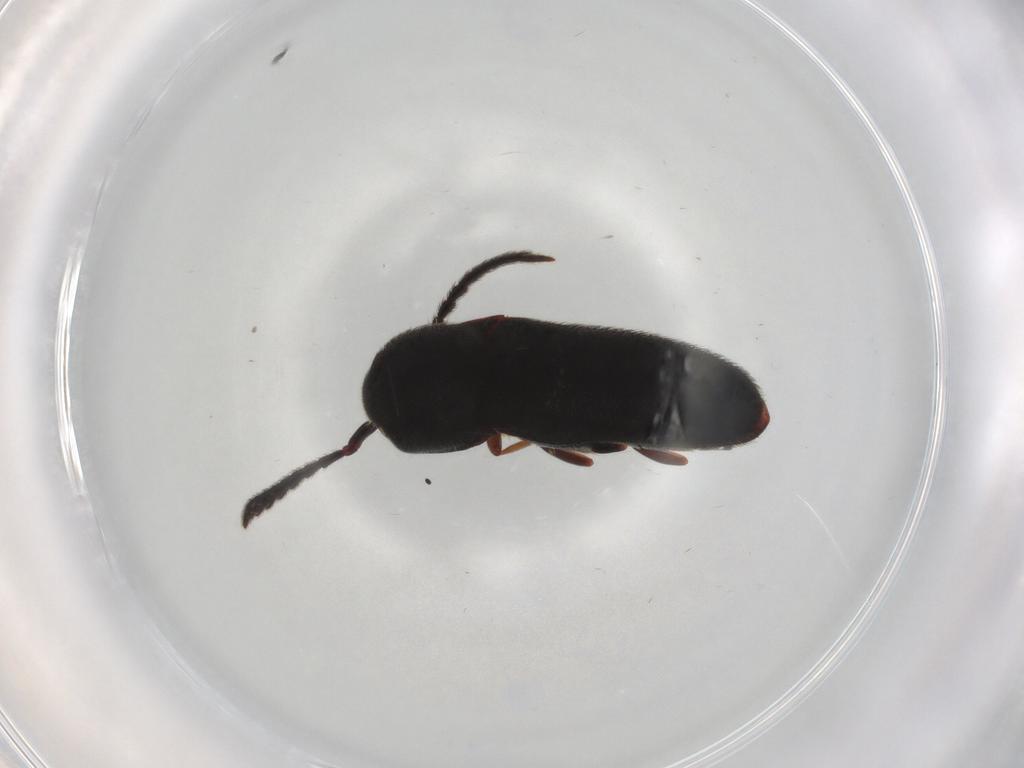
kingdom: Animalia
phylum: Arthropoda
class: Insecta
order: Coleoptera
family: Eucnemidae
